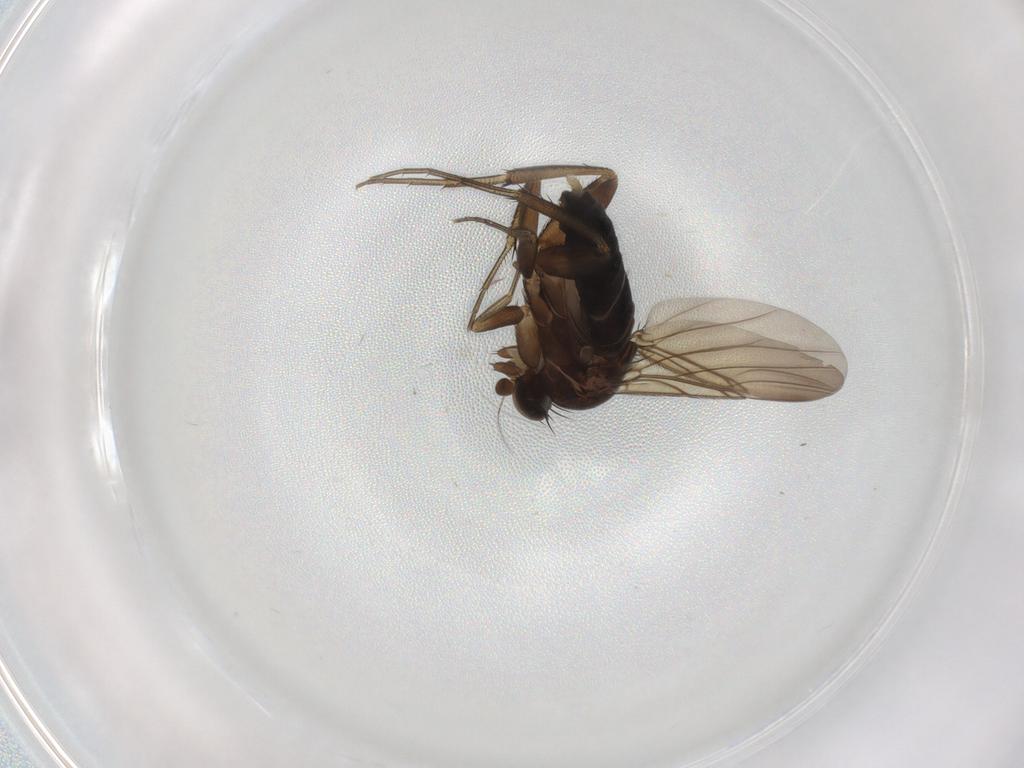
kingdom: Animalia
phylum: Arthropoda
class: Insecta
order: Diptera
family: Phoridae
